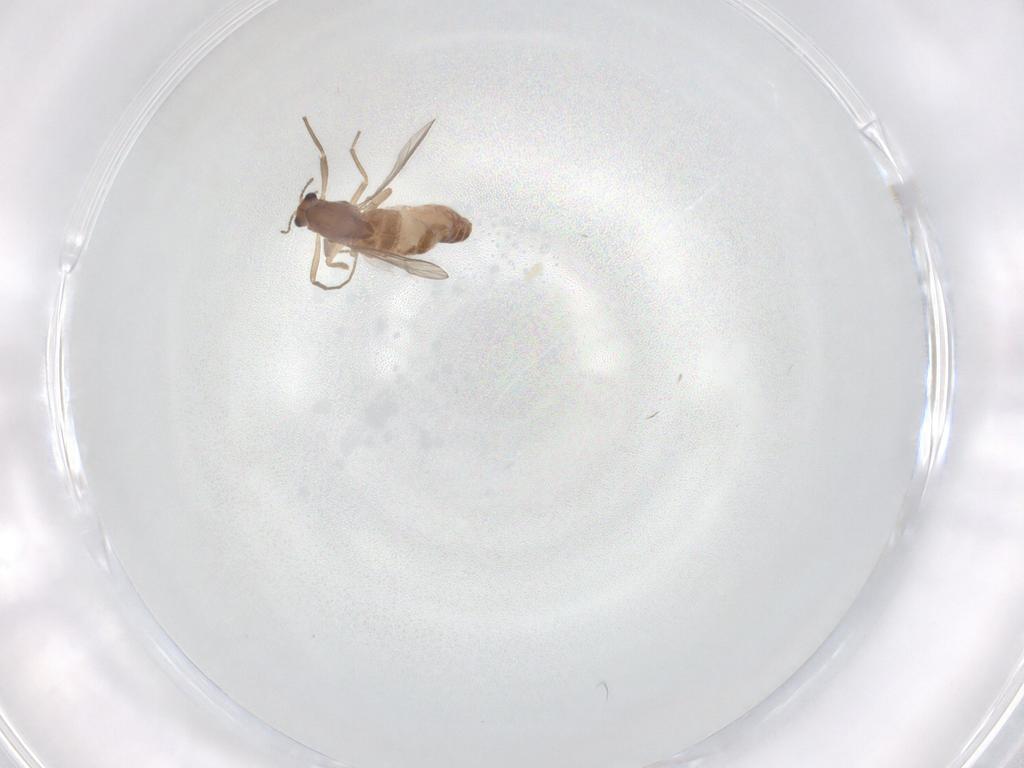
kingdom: Animalia
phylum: Arthropoda
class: Insecta
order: Diptera
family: Chironomidae
